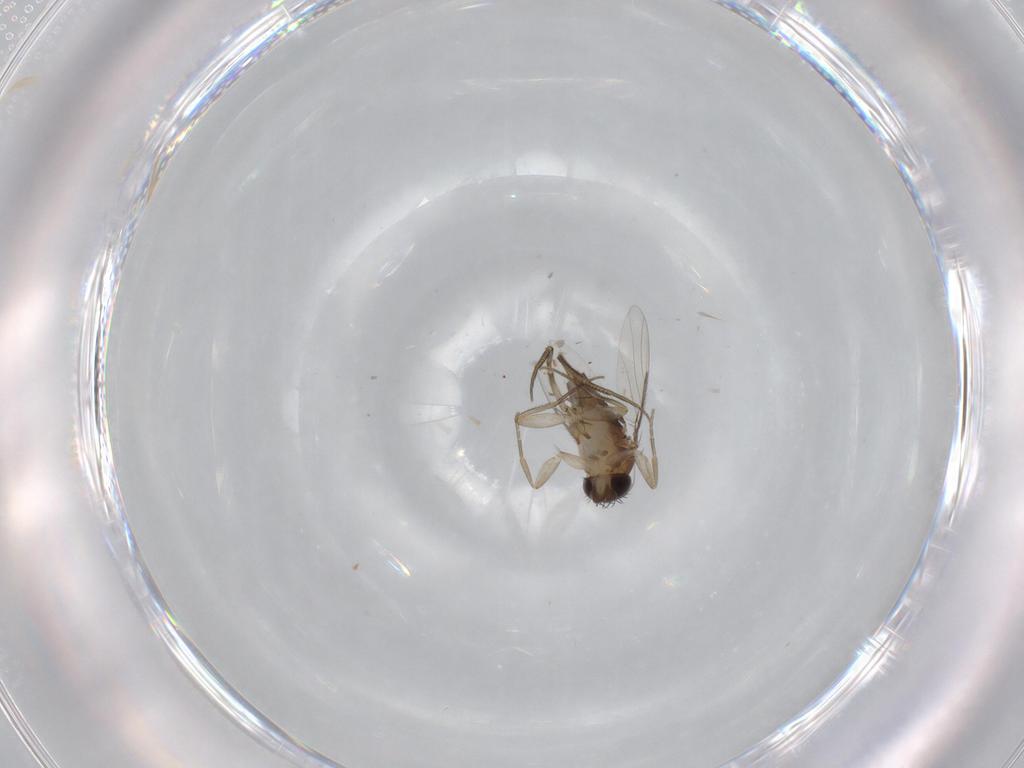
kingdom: Animalia
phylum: Arthropoda
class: Insecta
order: Diptera
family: Phoridae
